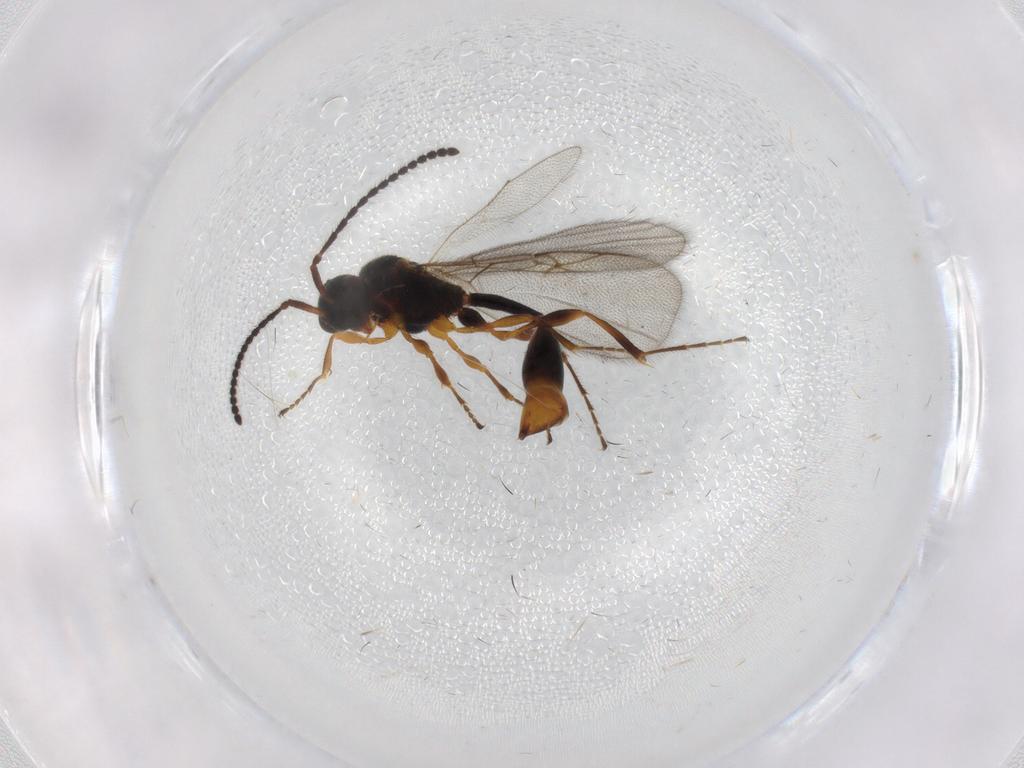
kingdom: Animalia
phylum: Arthropoda
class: Insecta
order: Hymenoptera
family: Diapriidae
